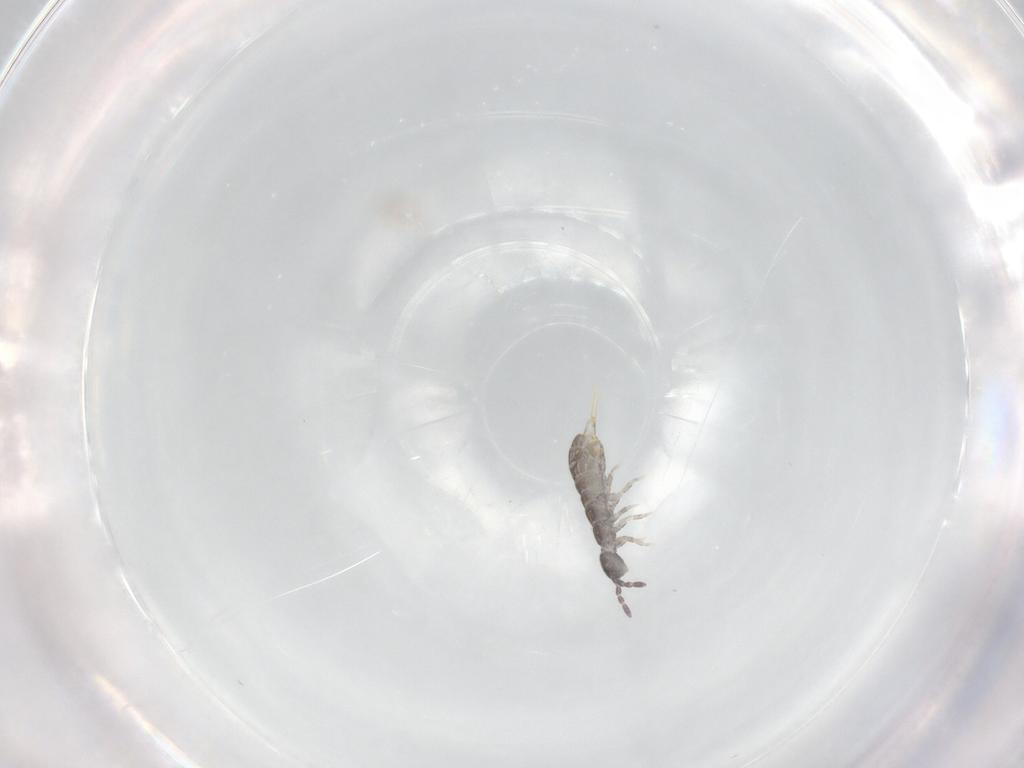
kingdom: Animalia
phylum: Arthropoda
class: Collembola
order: Entomobryomorpha
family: Isotomidae
